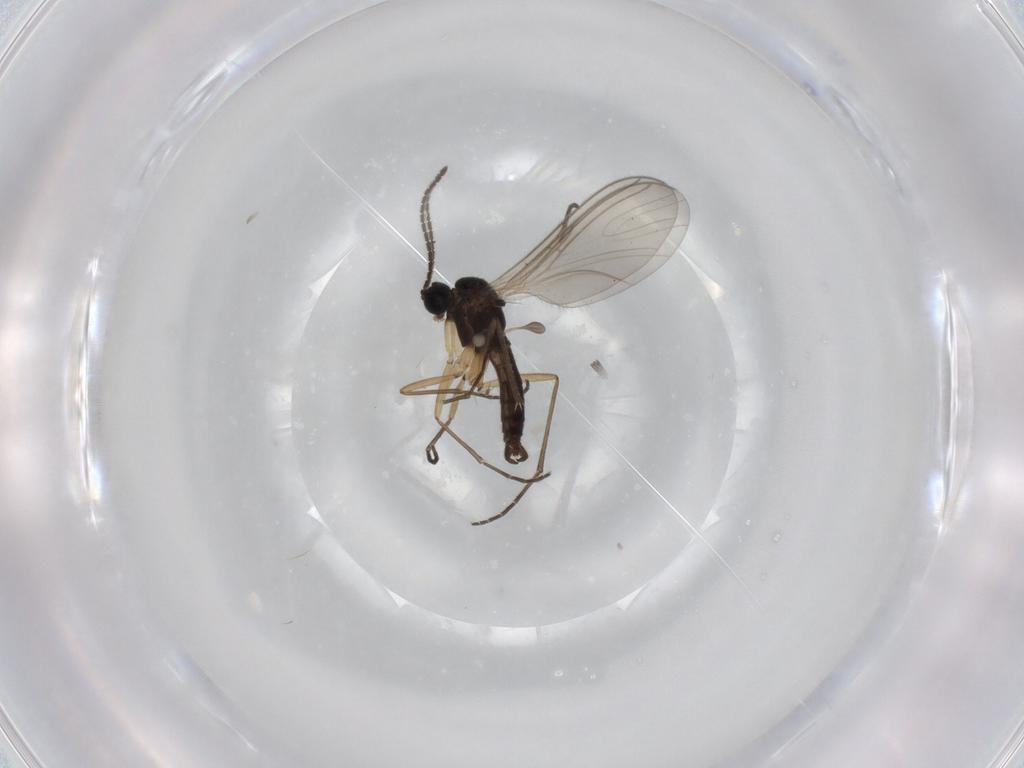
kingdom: Animalia
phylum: Arthropoda
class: Insecta
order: Diptera
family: Sciaridae
